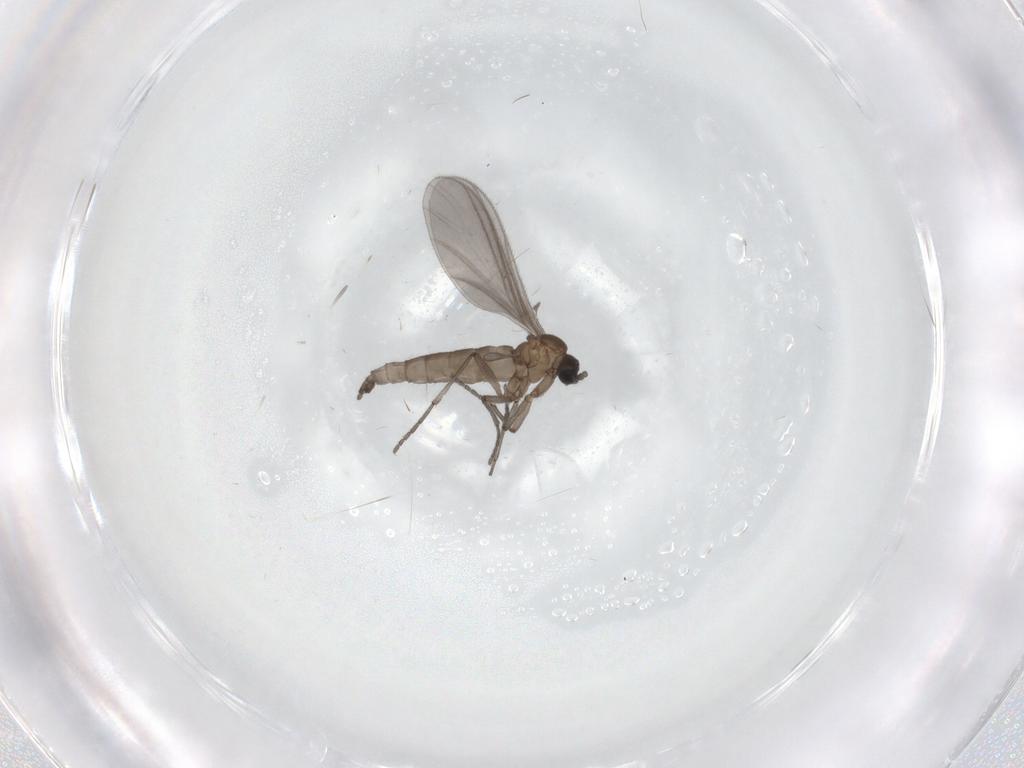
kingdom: Animalia
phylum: Arthropoda
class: Insecta
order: Diptera
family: Sciaridae
